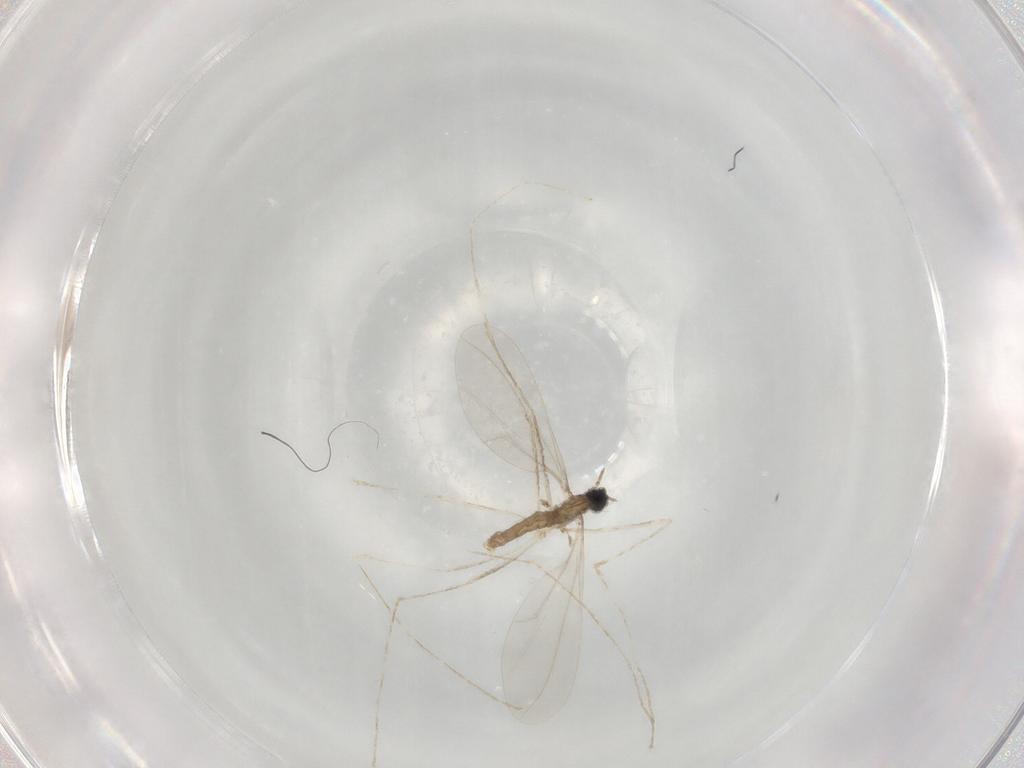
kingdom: Animalia
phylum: Arthropoda
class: Insecta
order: Diptera
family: Cecidomyiidae
